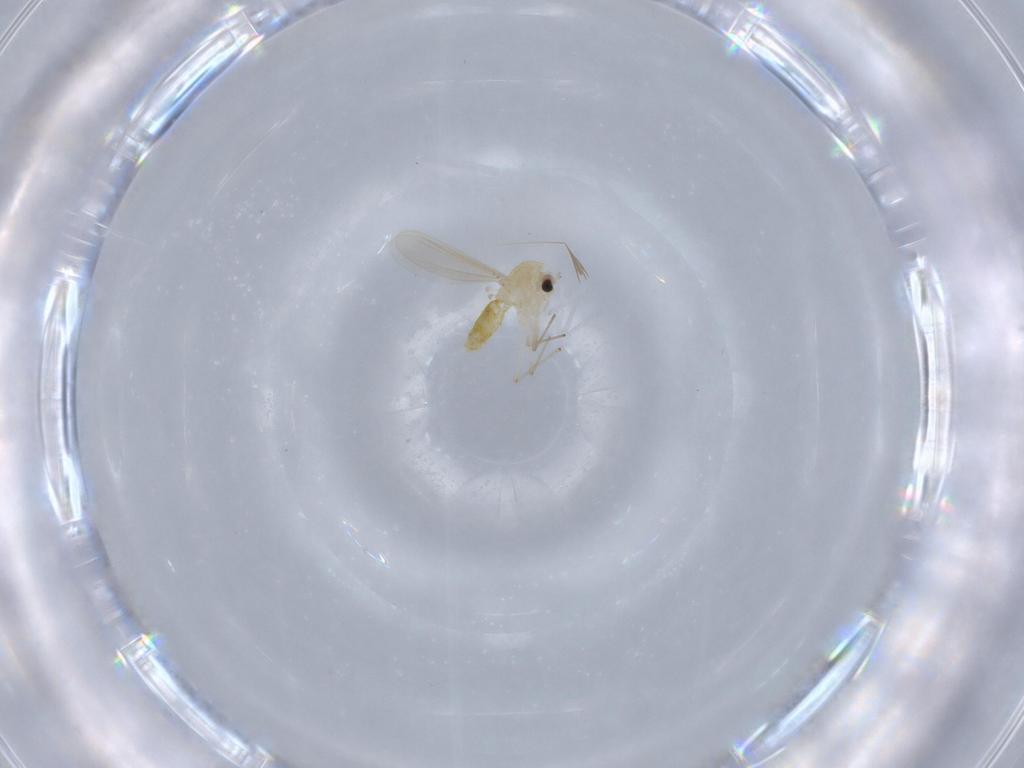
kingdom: Animalia
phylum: Arthropoda
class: Insecta
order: Diptera
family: Chironomidae
